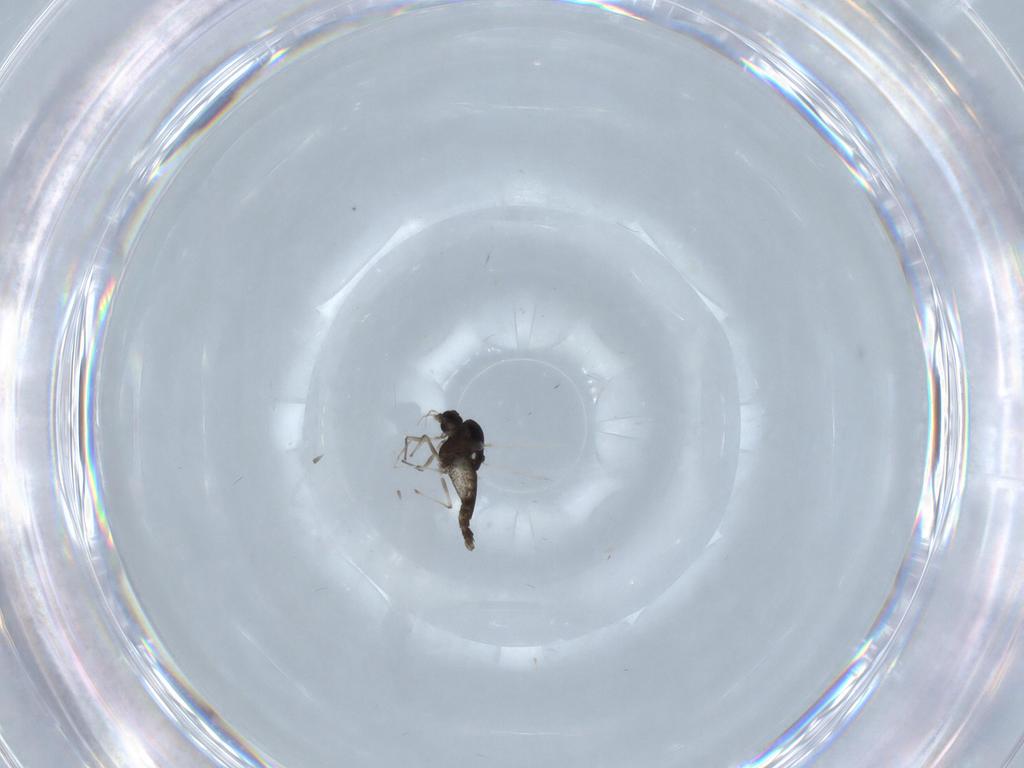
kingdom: Animalia
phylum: Arthropoda
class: Insecta
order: Diptera
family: Psychodidae
